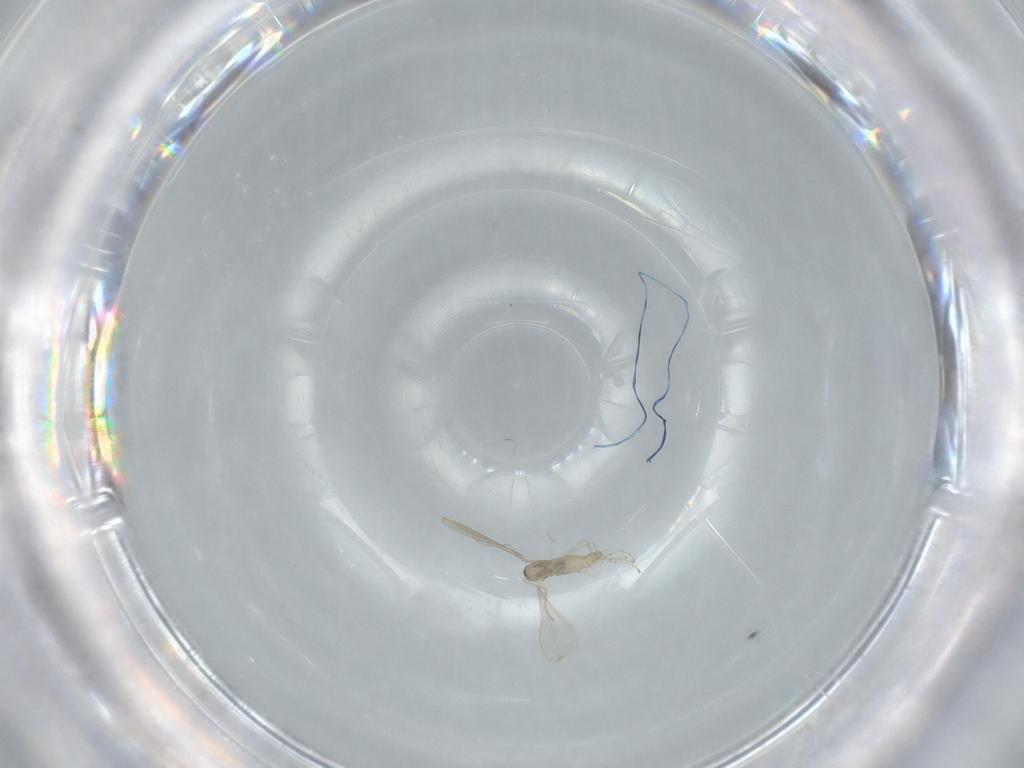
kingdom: Animalia
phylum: Arthropoda
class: Insecta
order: Diptera
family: Cecidomyiidae
